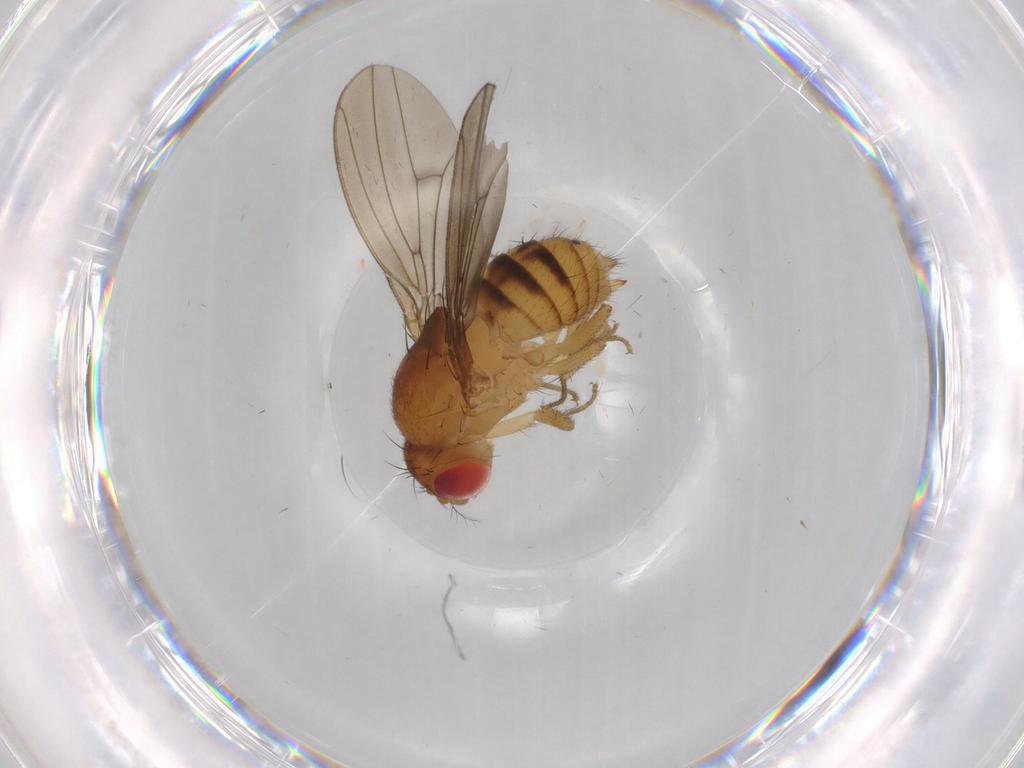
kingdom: Animalia
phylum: Arthropoda
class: Insecta
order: Diptera
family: Drosophilidae
